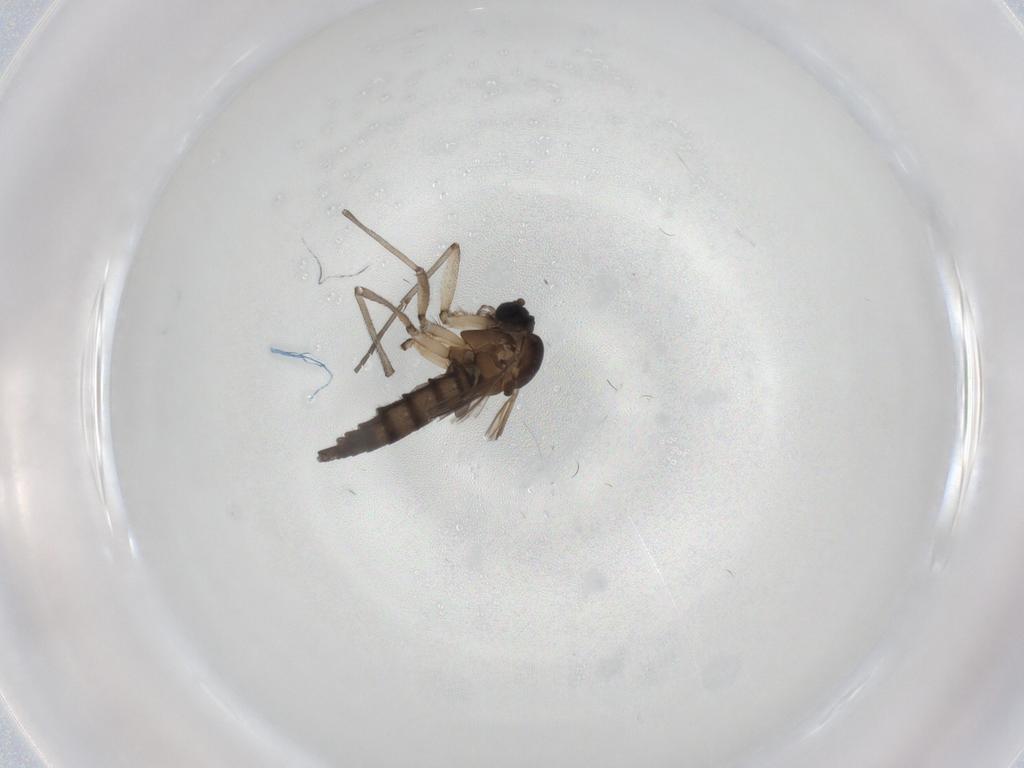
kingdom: Animalia
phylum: Arthropoda
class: Insecta
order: Diptera
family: Sciaridae
